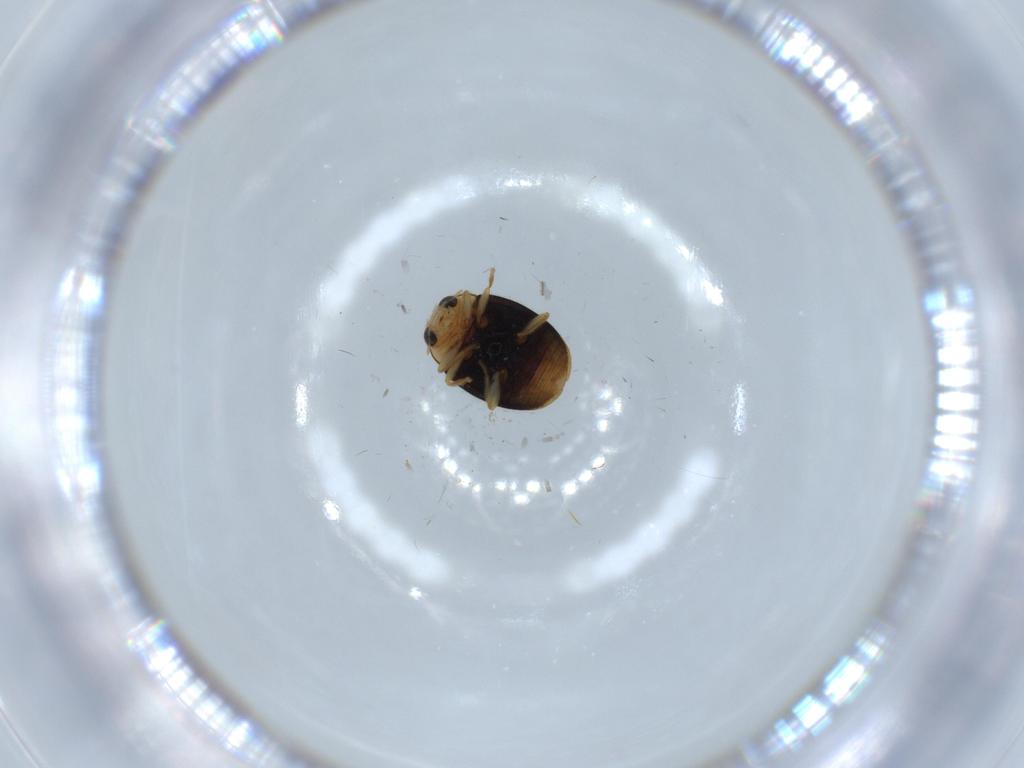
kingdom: Animalia
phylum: Arthropoda
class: Insecta
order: Coleoptera
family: Coccinellidae
